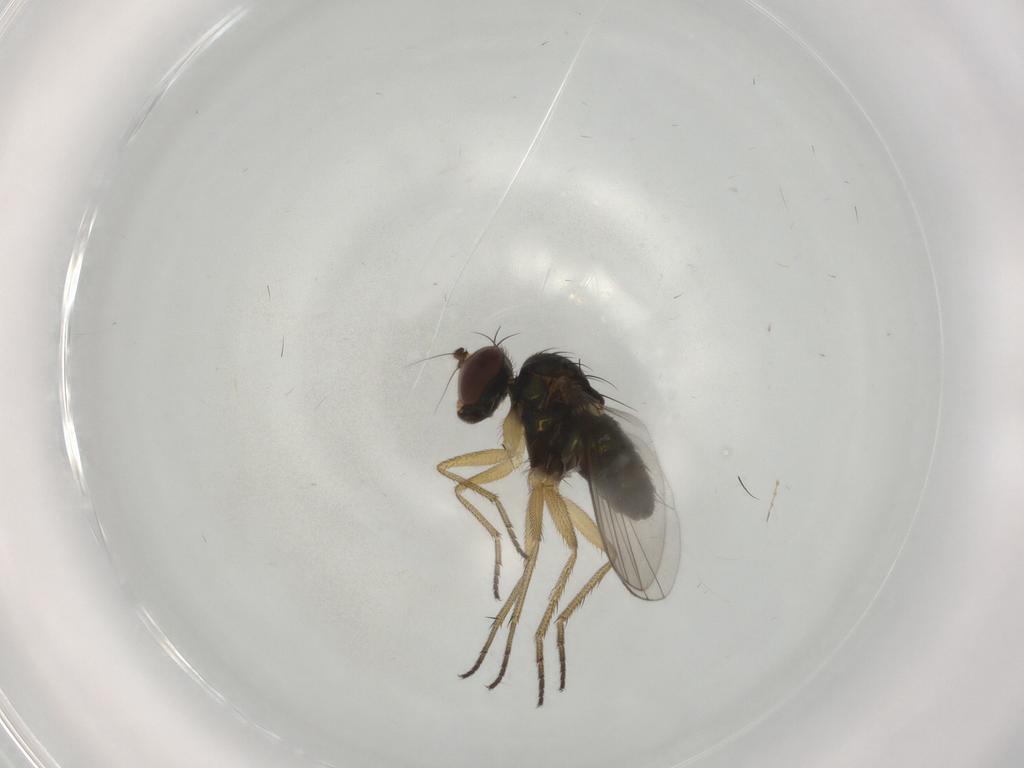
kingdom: Animalia
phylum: Arthropoda
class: Insecta
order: Diptera
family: Dolichopodidae
